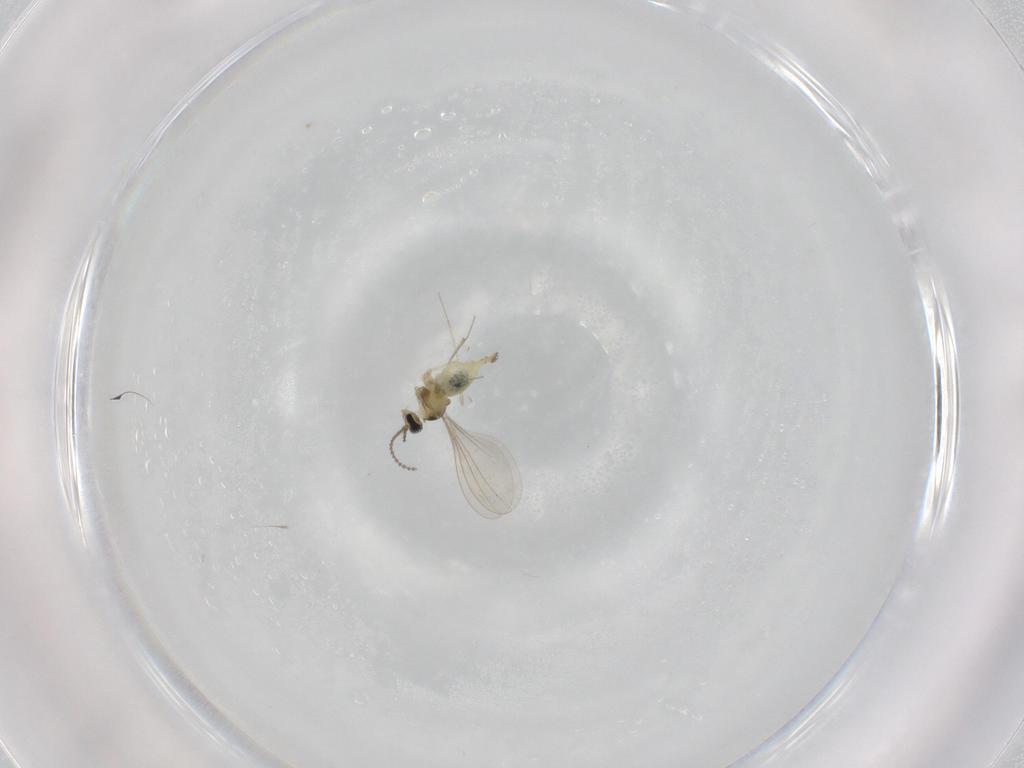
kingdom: Animalia
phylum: Arthropoda
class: Insecta
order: Diptera
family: Cecidomyiidae
